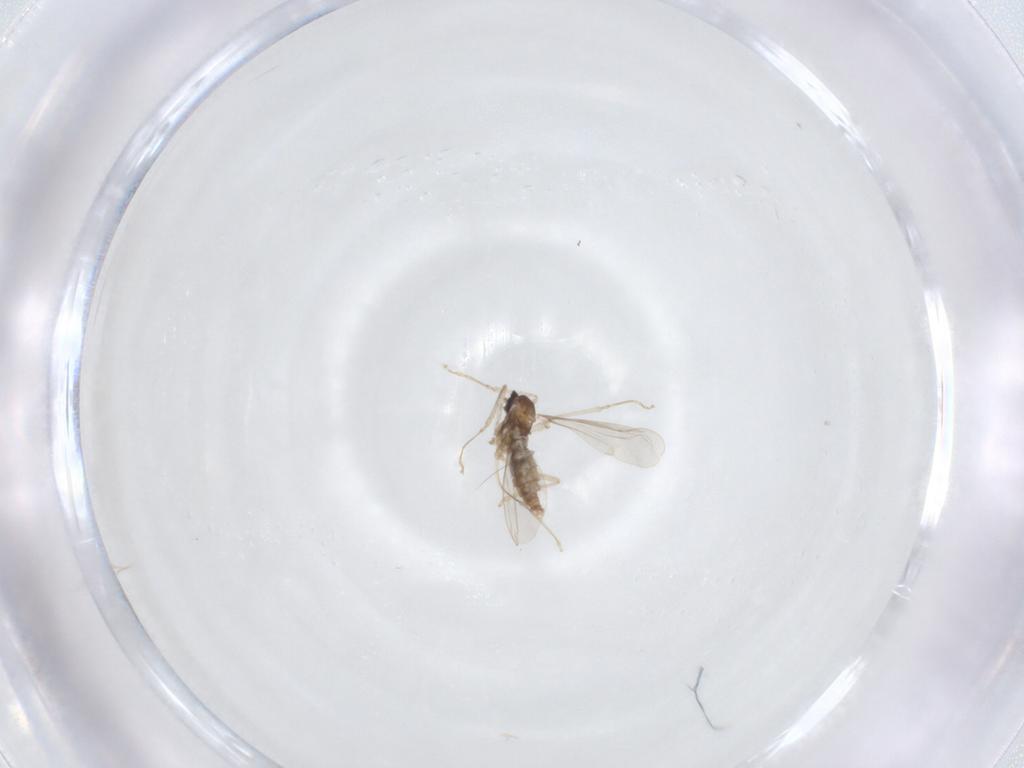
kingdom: Animalia
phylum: Arthropoda
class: Insecta
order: Diptera
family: Cecidomyiidae
